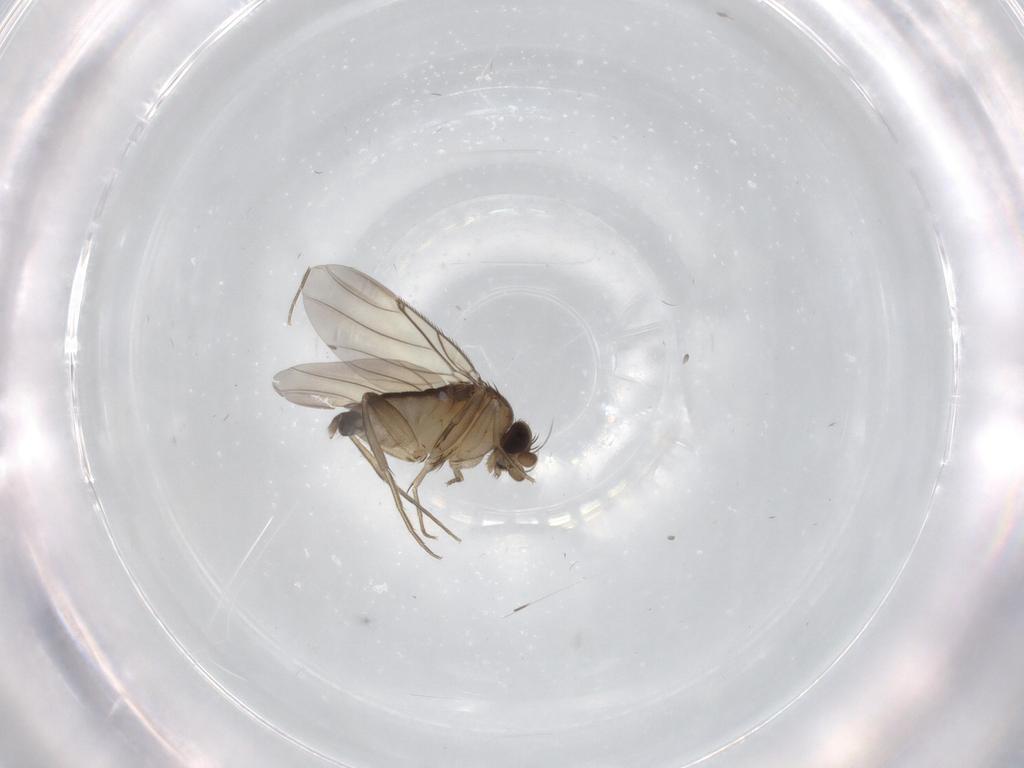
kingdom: Animalia
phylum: Arthropoda
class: Insecta
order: Diptera
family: Phoridae
